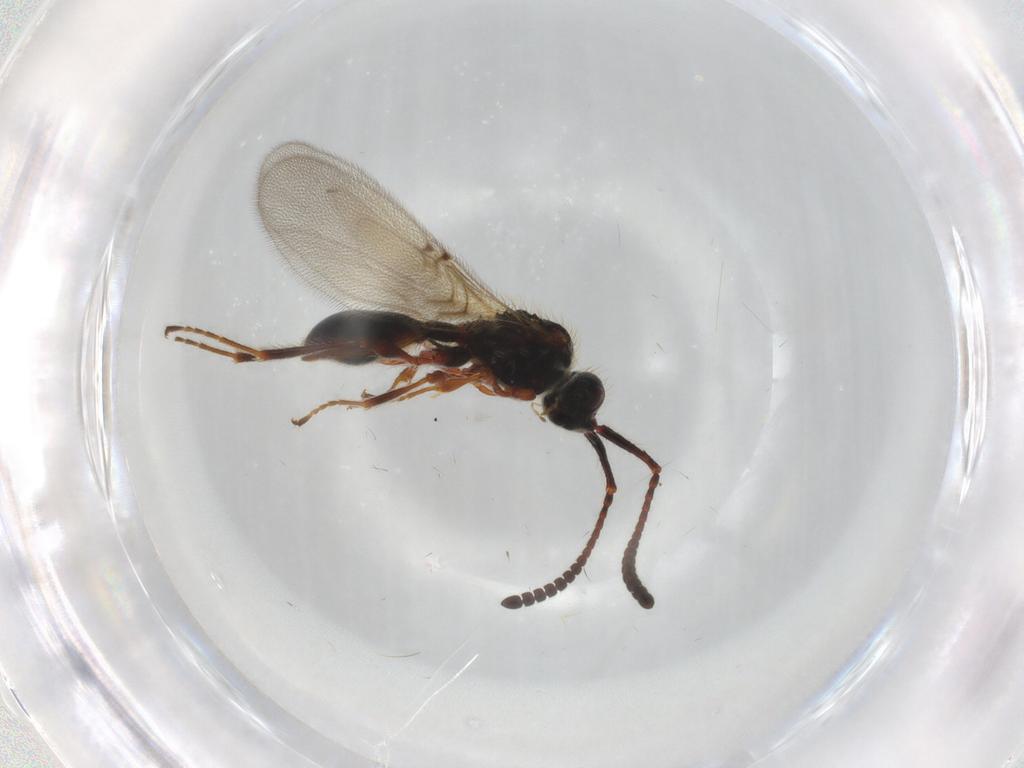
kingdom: Animalia
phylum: Arthropoda
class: Insecta
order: Hymenoptera
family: Diapriidae
